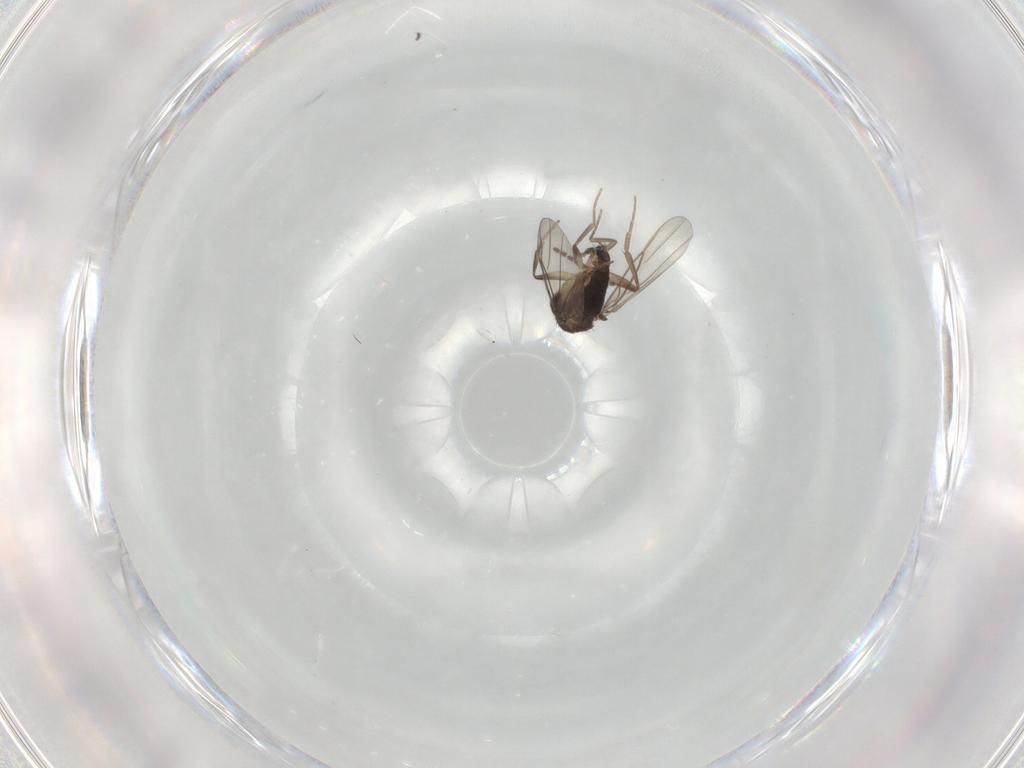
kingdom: Animalia
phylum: Arthropoda
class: Insecta
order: Diptera
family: Phoridae
